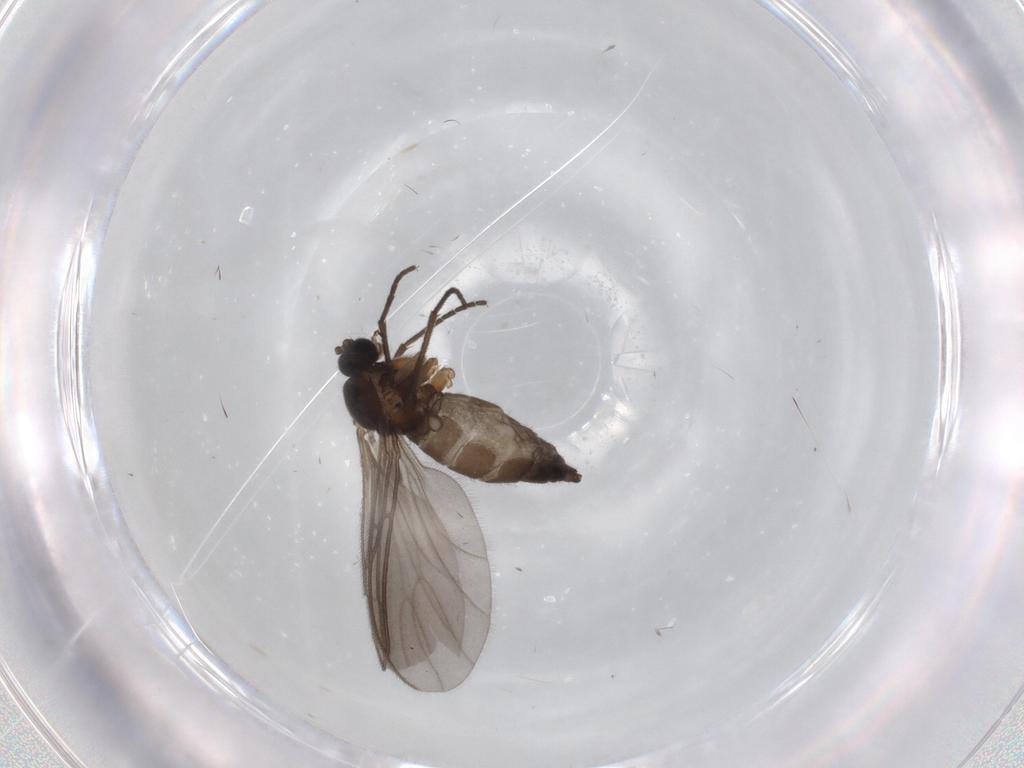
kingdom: Animalia
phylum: Arthropoda
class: Insecta
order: Diptera
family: Sciaridae
